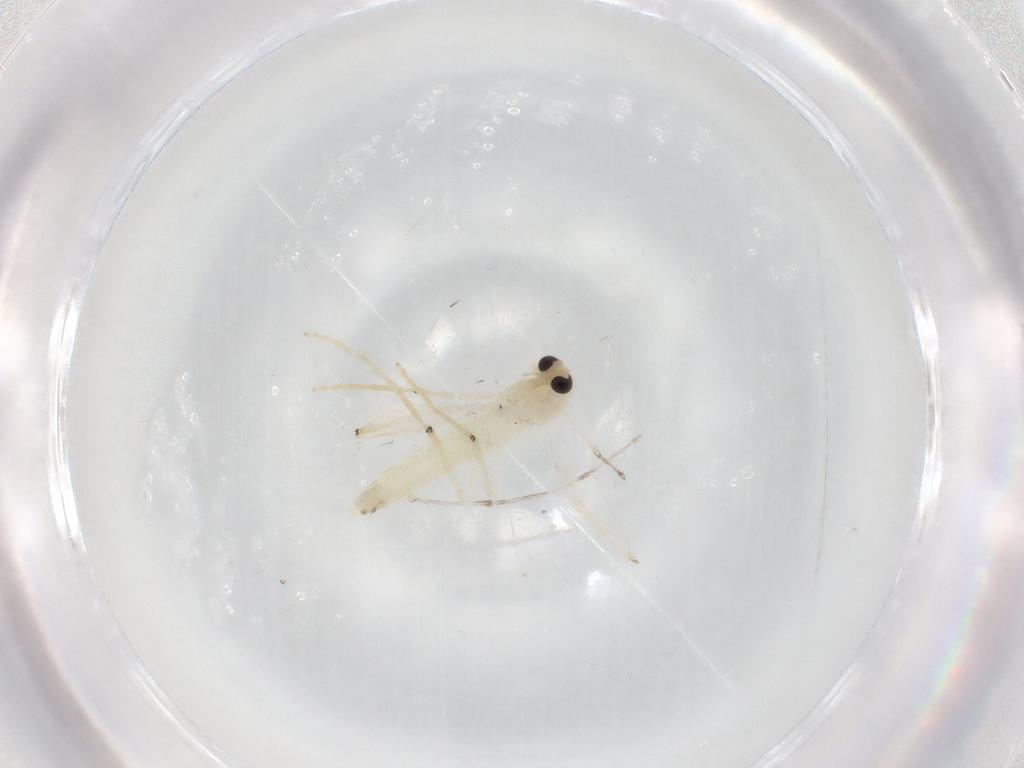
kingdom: Animalia
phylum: Arthropoda
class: Insecta
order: Diptera
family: Chironomidae
